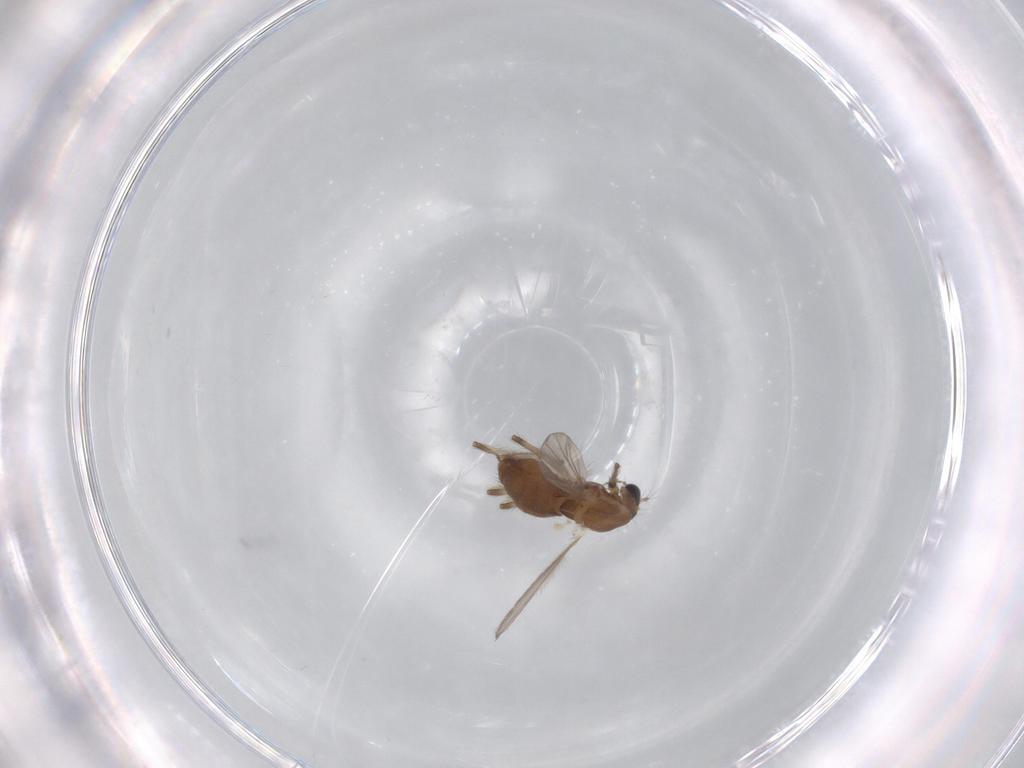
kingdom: Animalia
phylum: Arthropoda
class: Insecta
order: Diptera
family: Chironomidae
